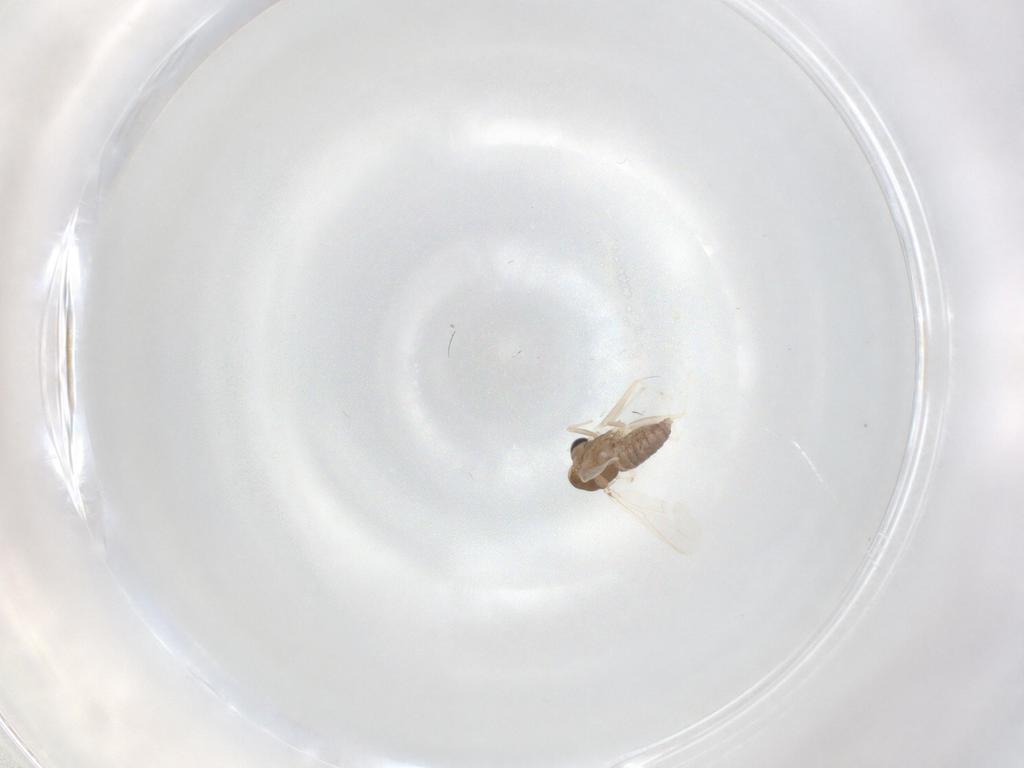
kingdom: Animalia
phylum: Arthropoda
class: Insecta
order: Diptera
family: Chironomidae
